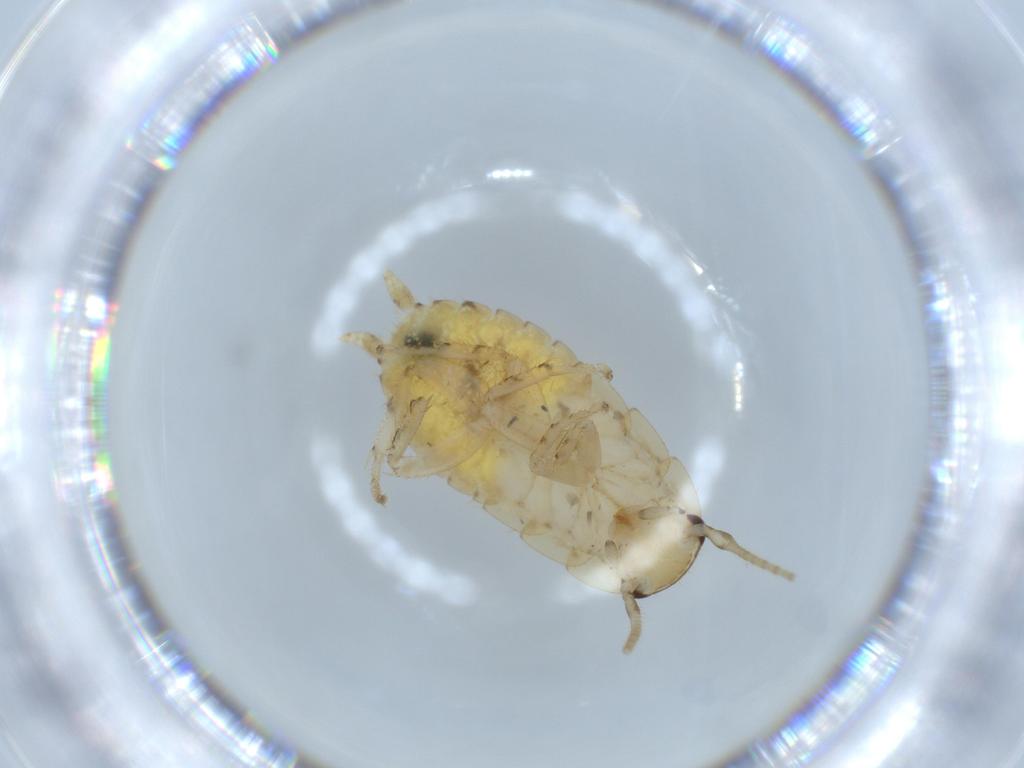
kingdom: Animalia
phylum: Arthropoda
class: Insecta
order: Blattodea
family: Ectobiidae
